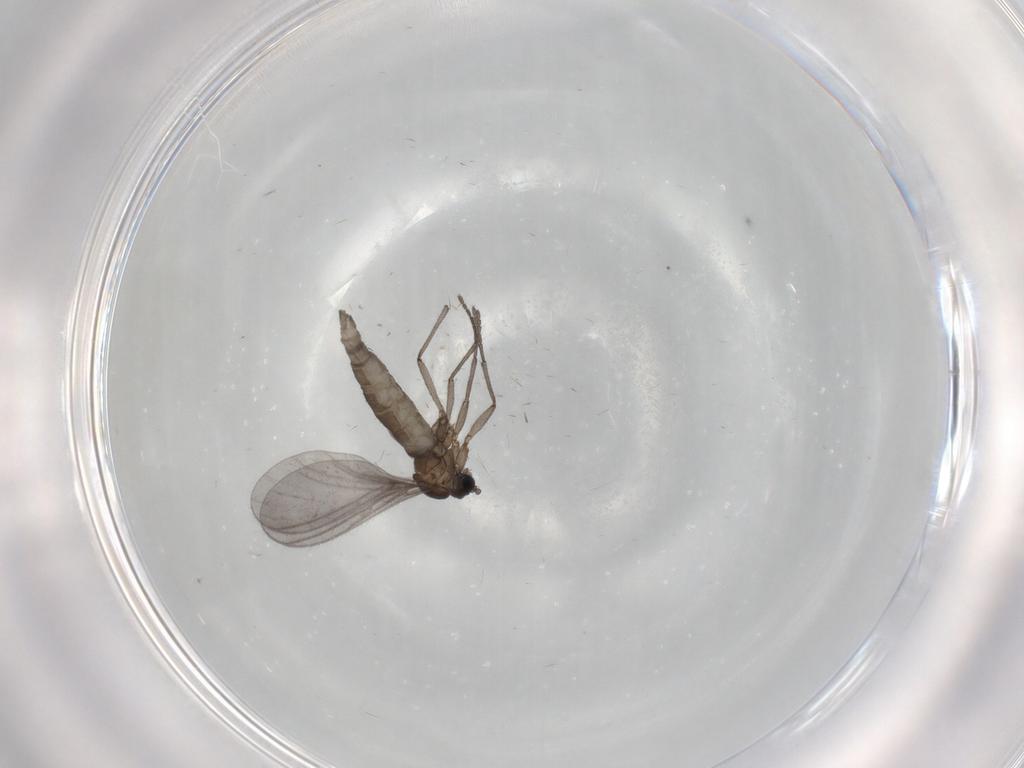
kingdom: Animalia
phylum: Arthropoda
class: Insecta
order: Diptera
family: Sciaridae
